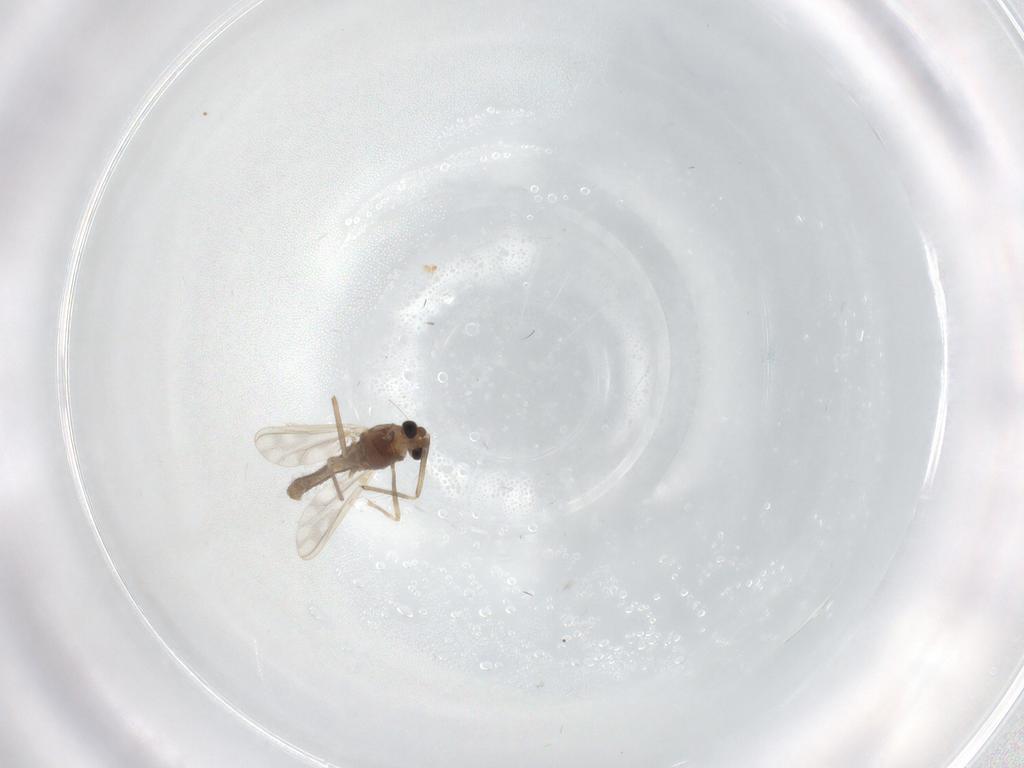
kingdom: Animalia
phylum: Arthropoda
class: Insecta
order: Diptera
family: Chironomidae
